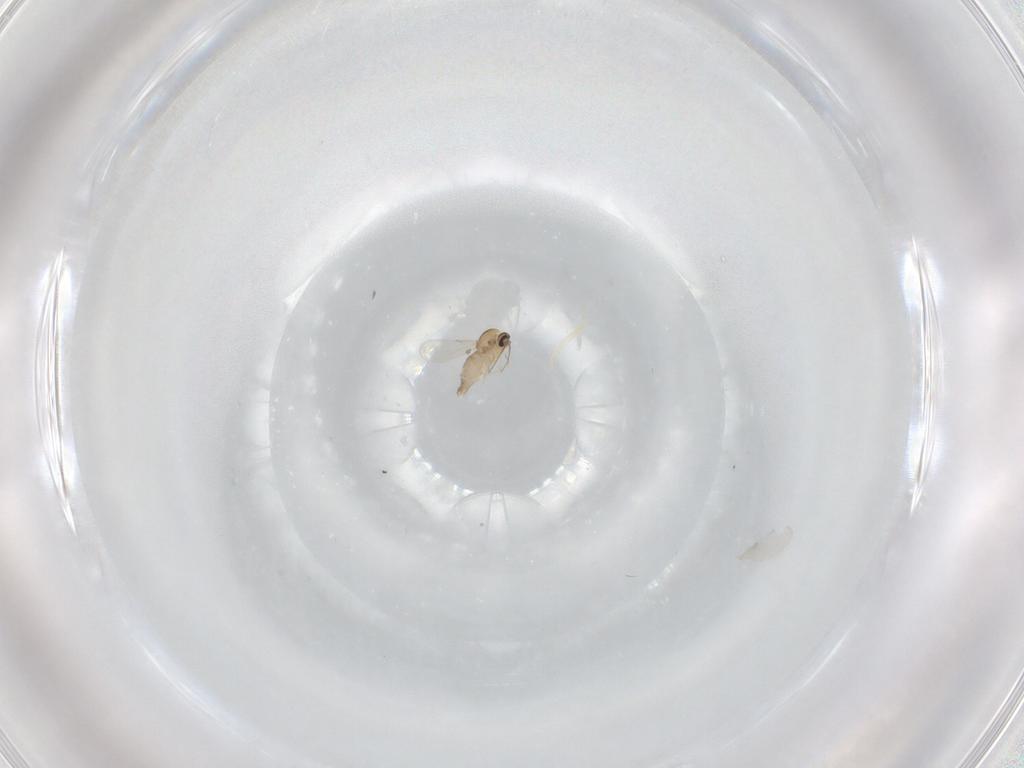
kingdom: Animalia
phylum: Arthropoda
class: Insecta
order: Diptera
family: Ceratopogonidae
